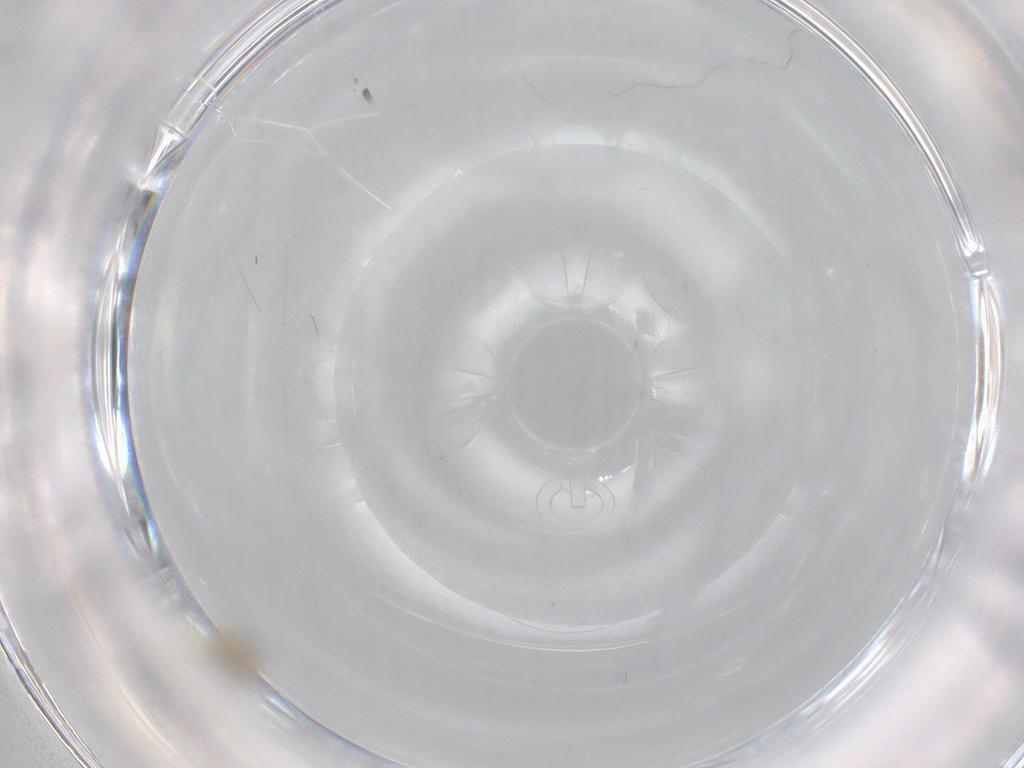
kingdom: Animalia
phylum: Arthropoda
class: Insecta
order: Diptera
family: Cecidomyiidae
